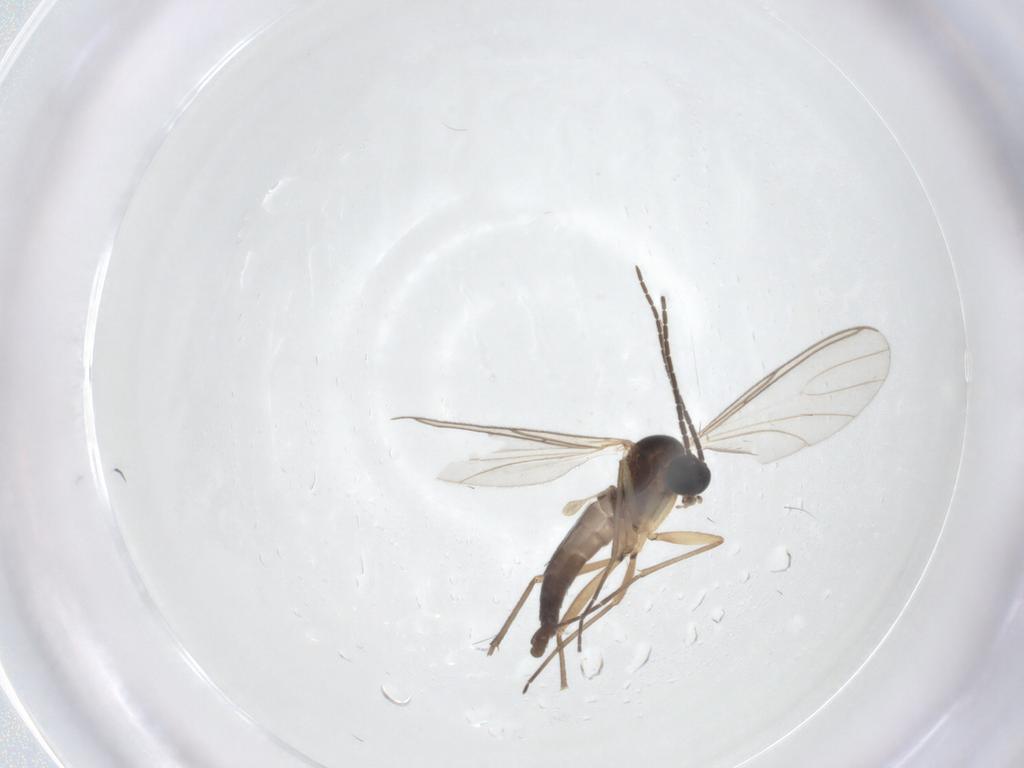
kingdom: Animalia
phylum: Arthropoda
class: Insecta
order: Diptera
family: Sciaridae
